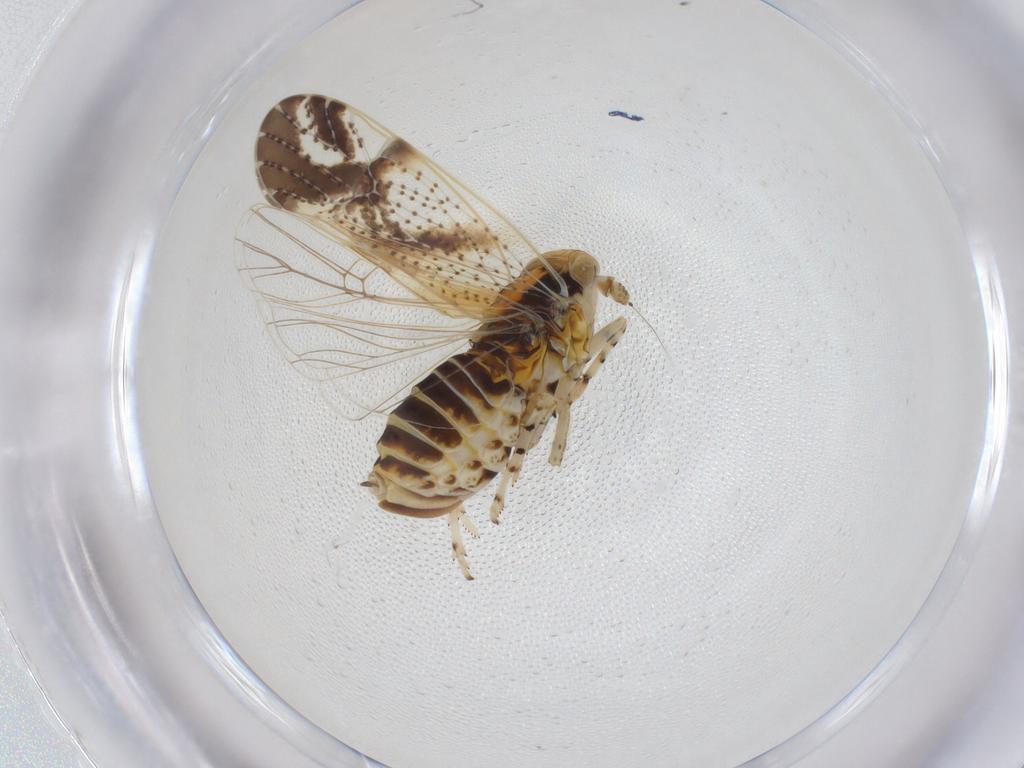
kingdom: Animalia
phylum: Arthropoda
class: Insecta
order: Hemiptera
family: Delphacidae
